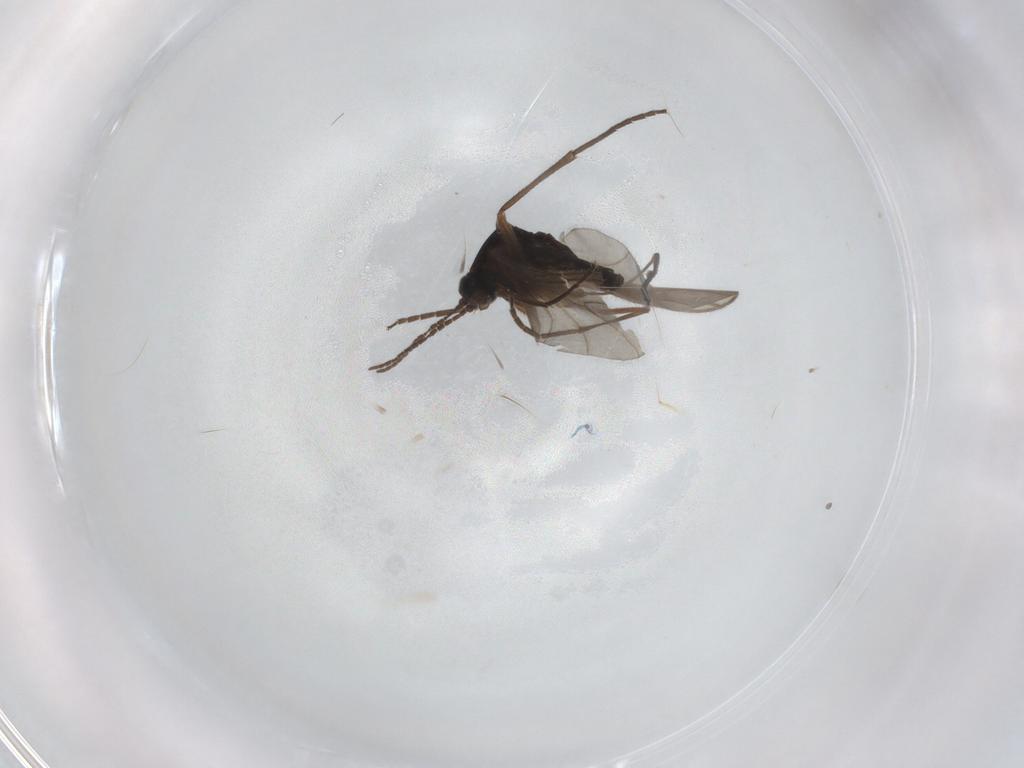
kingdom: Animalia
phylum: Arthropoda
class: Insecta
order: Diptera
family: Sciaridae
